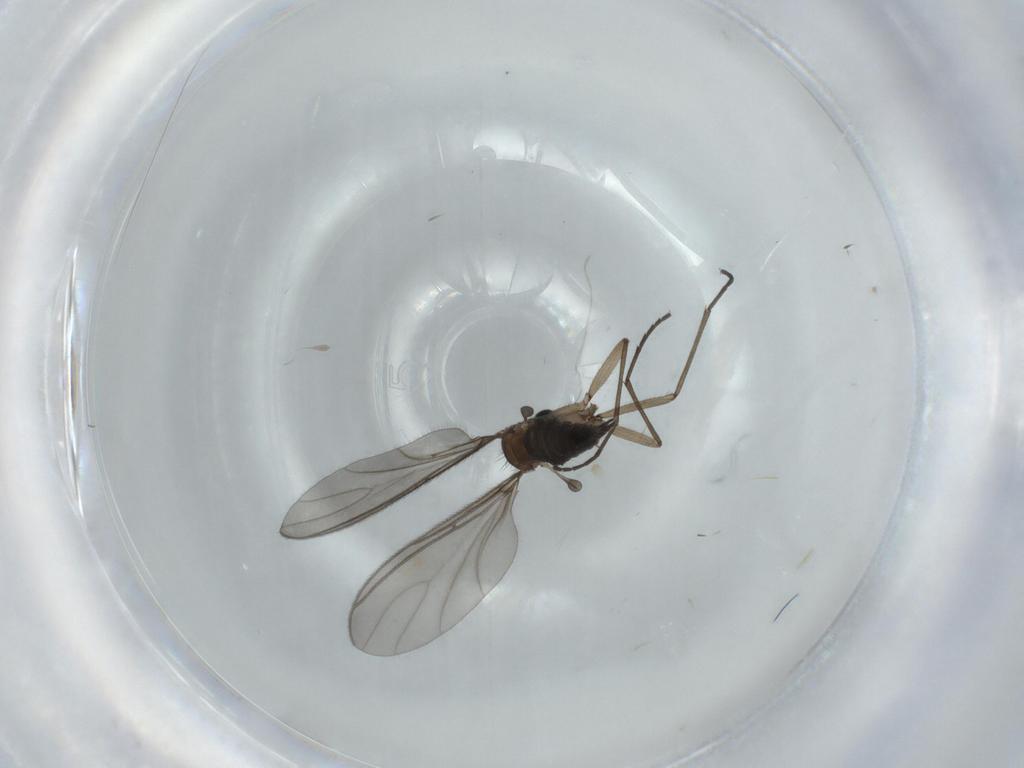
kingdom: Animalia
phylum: Arthropoda
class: Insecta
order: Diptera
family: Sciaridae
